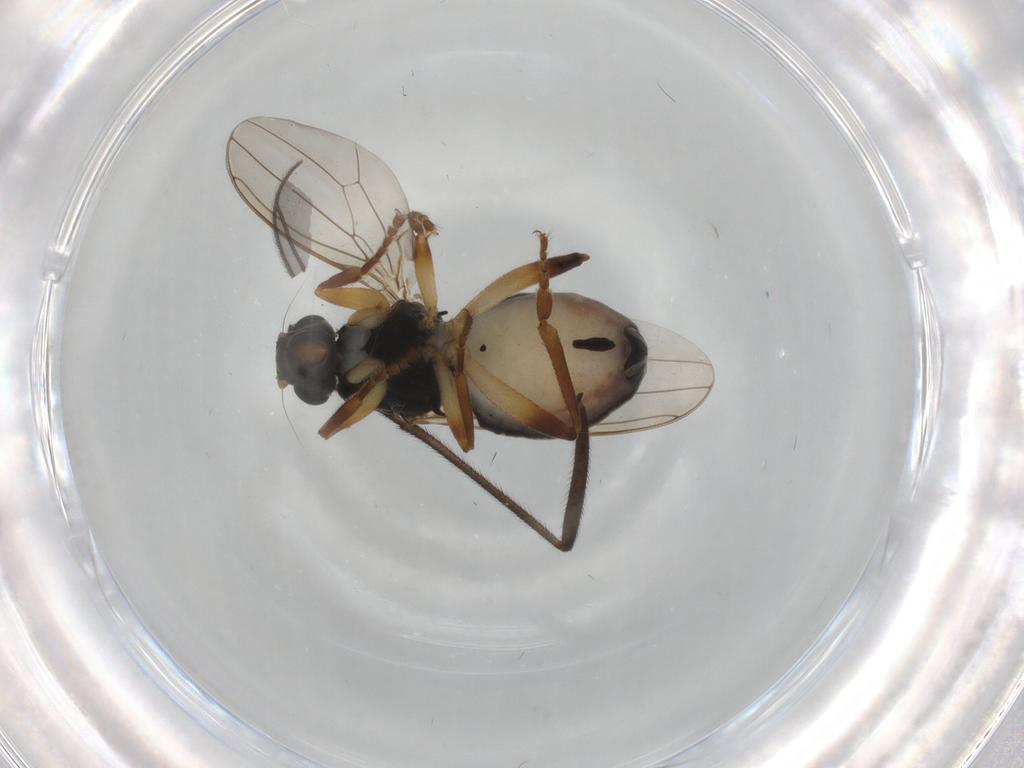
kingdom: Animalia
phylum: Arthropoda
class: Insecta
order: Diptera
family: Sphaeroceridae
